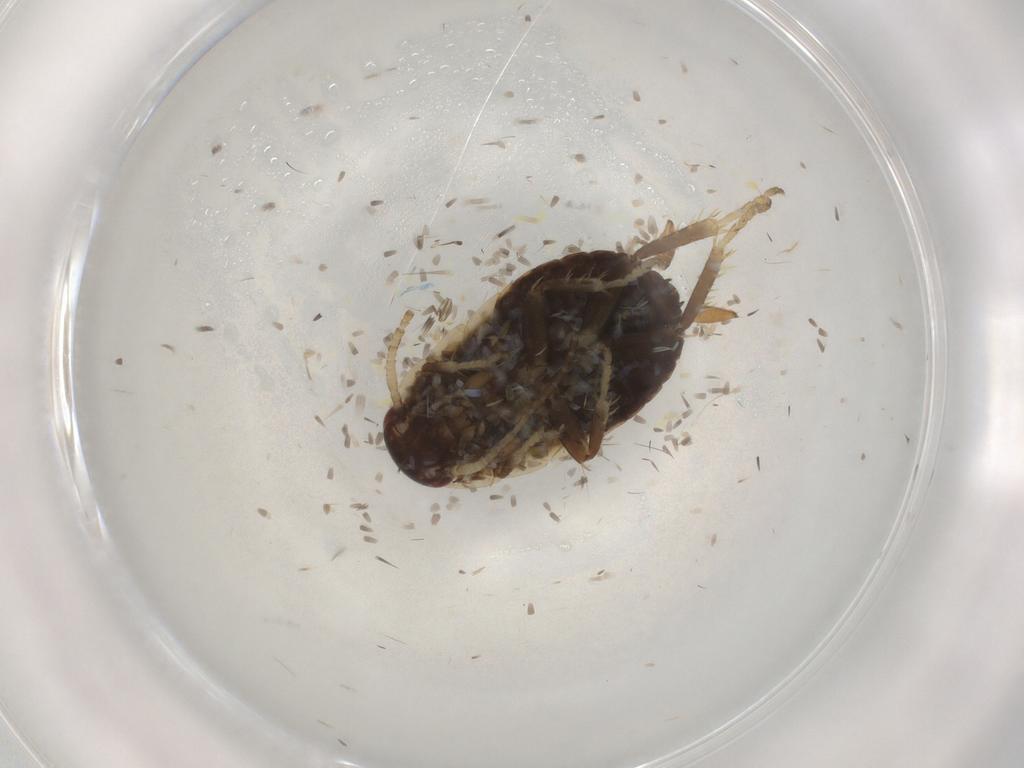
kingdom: Animalia
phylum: Arthropoda
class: Insecta
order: Blattodea
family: Ectobiidae
